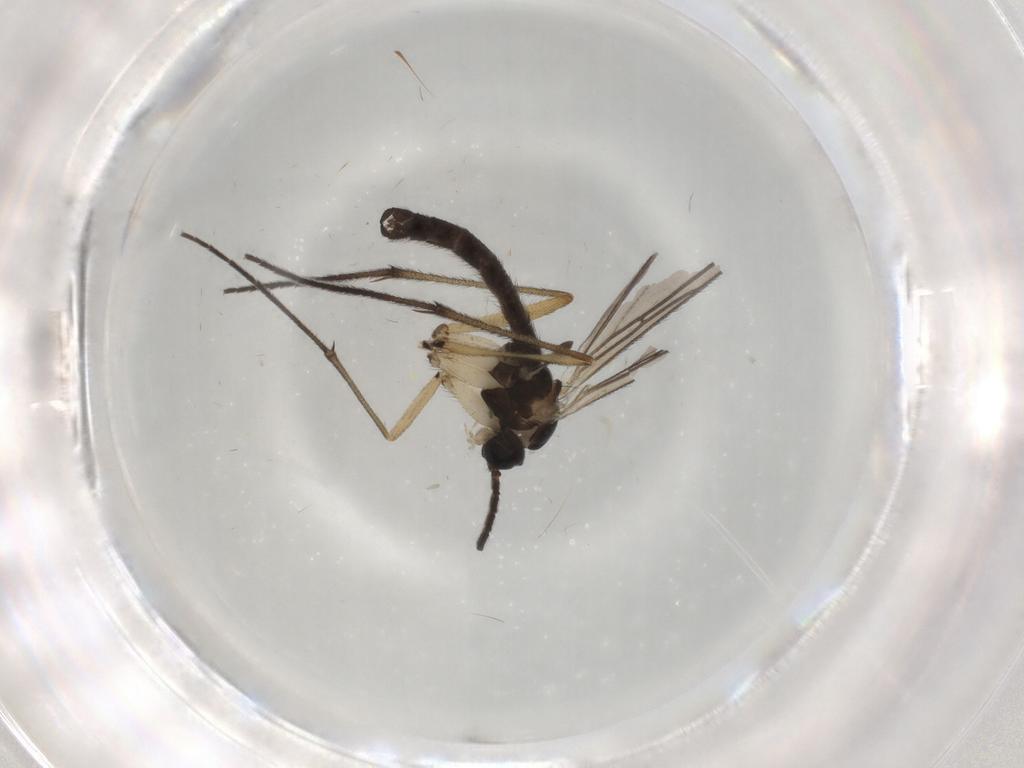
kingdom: Animalia
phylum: Arthropoda
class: Insecta
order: Diptera
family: Sciaridae
